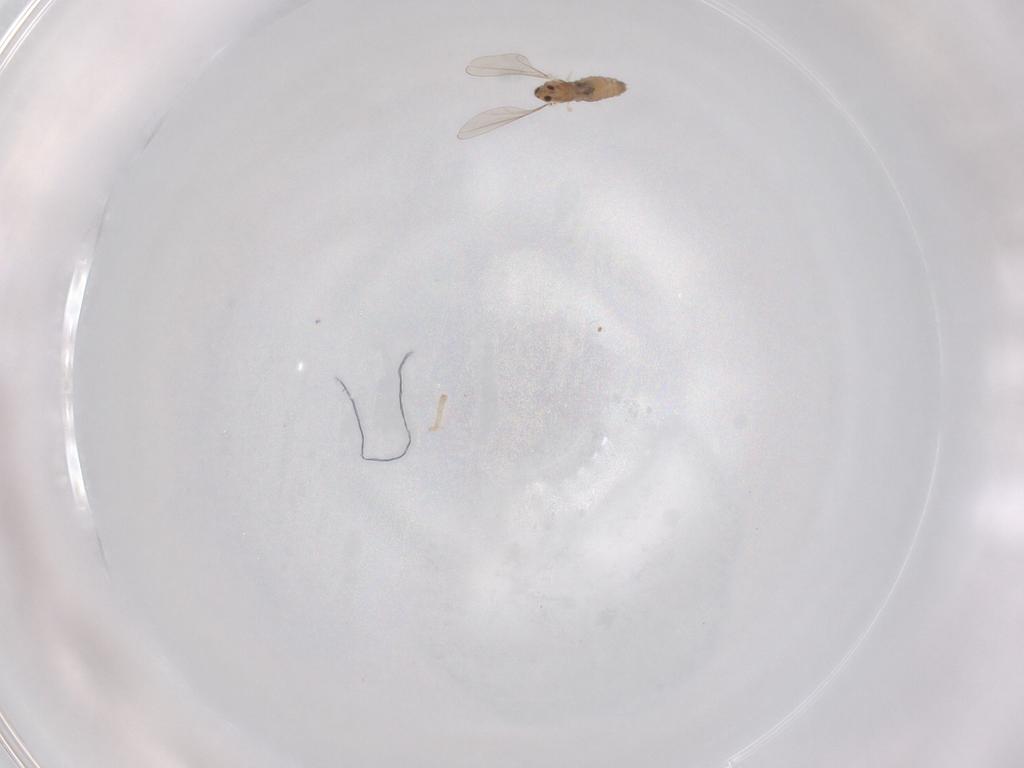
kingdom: Animalia
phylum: Arthropoda
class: Insecta
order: Diptera
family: Cecidomyiidae
